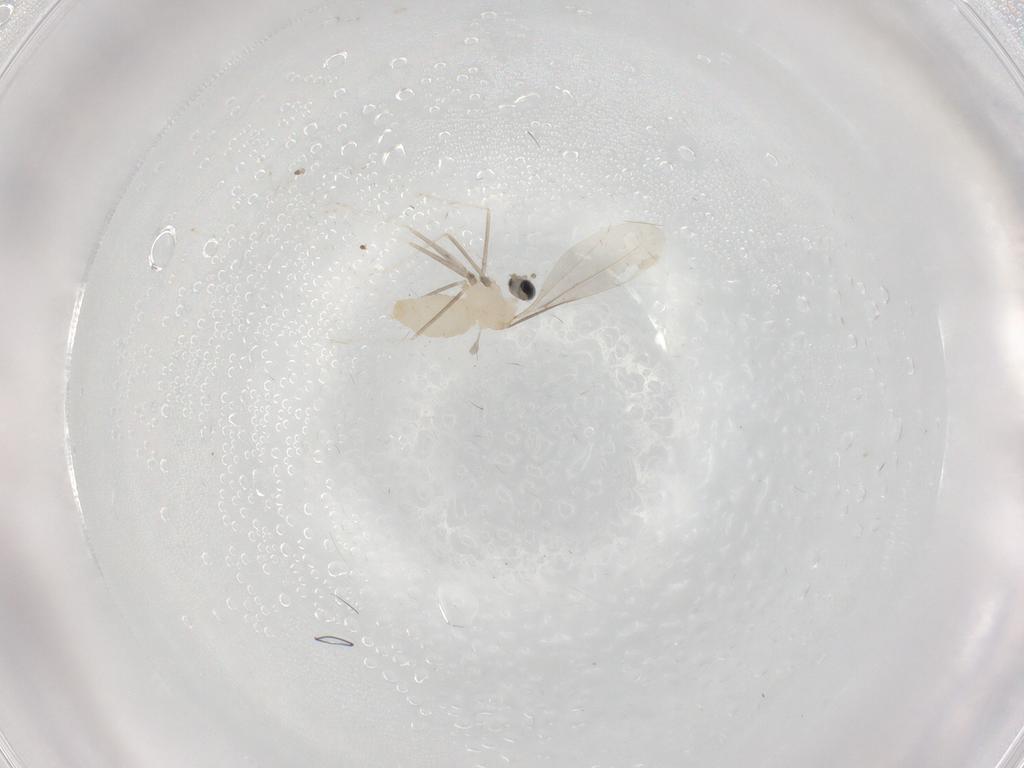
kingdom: Animalia
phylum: Arthropoda
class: Insecta
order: Diptera
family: Cecidomyiidae
